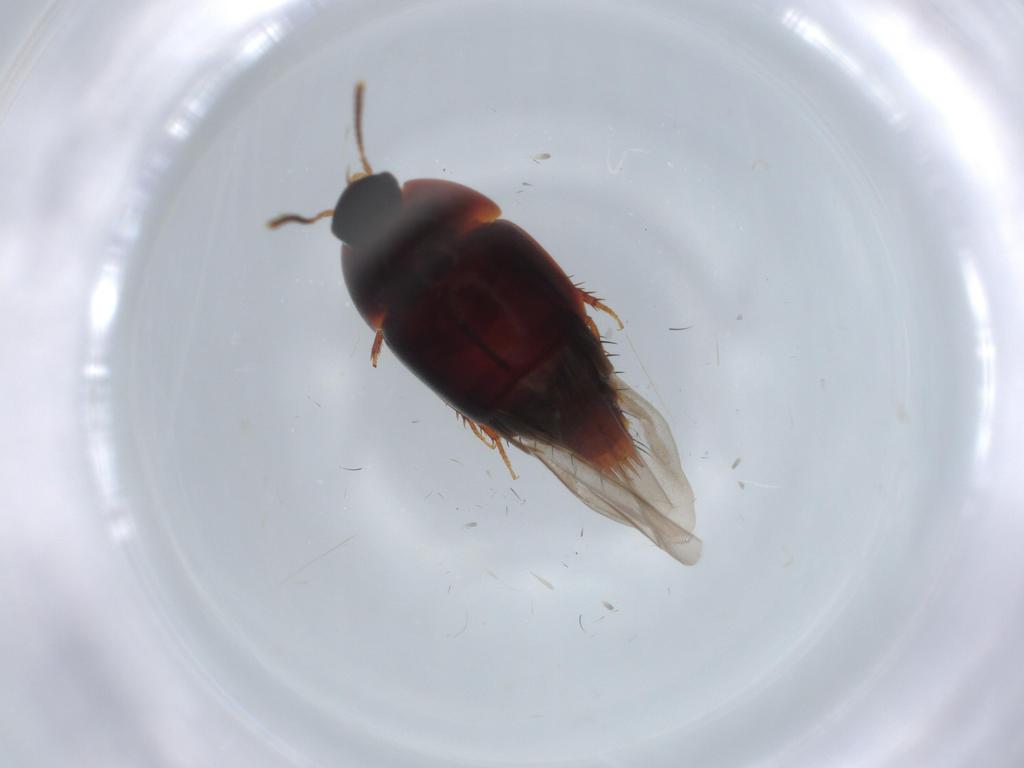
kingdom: Animalia
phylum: Arthropoda
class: Insecta
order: Coleoptera
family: Staphylinidae
